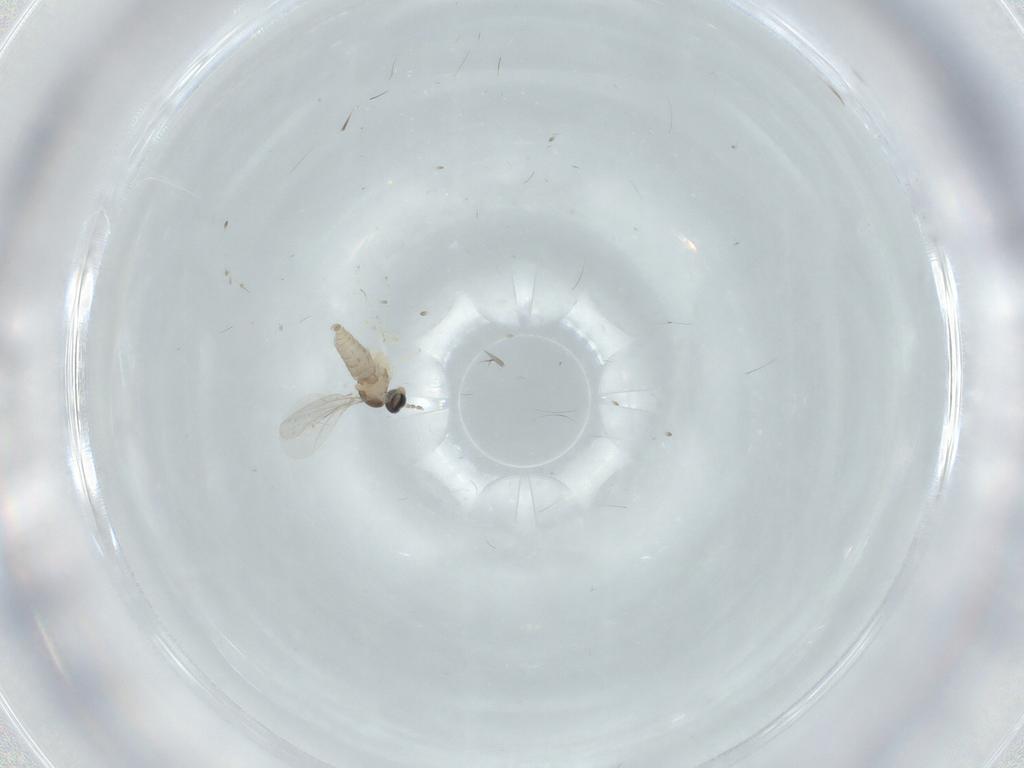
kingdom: Animalia
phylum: Arthropoda
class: Insecta
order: Diptera
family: Cecidomyiidae
